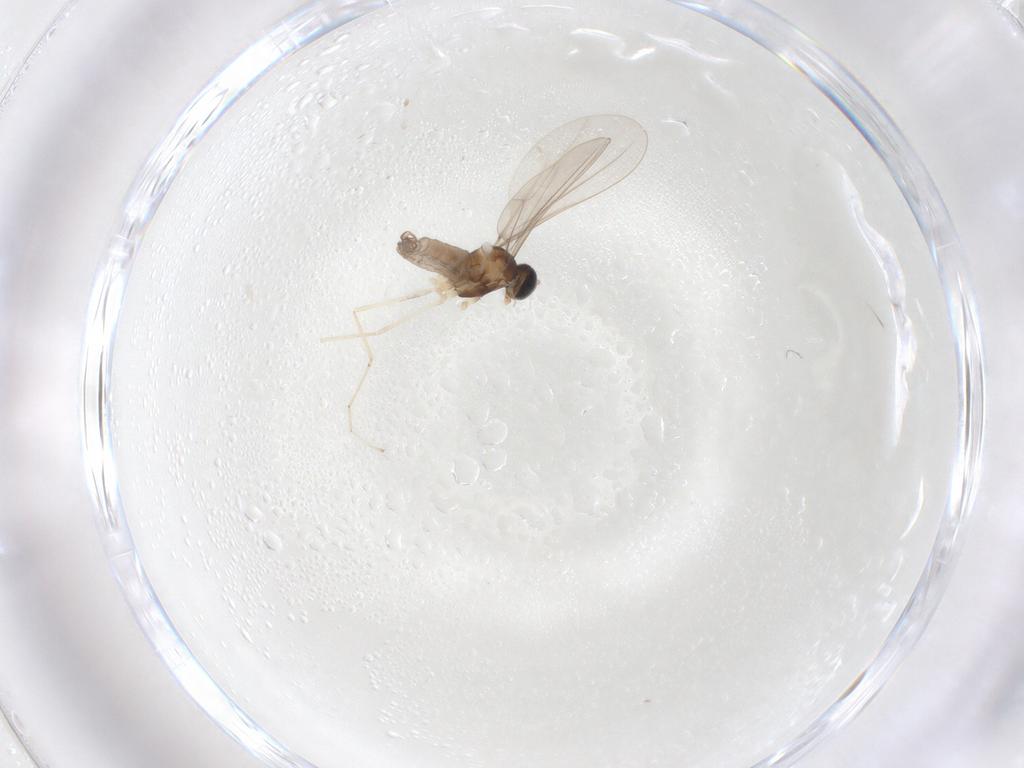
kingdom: Animalia
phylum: Arthropoda
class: Insecta
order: Diptera
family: Cecidomyiidae
